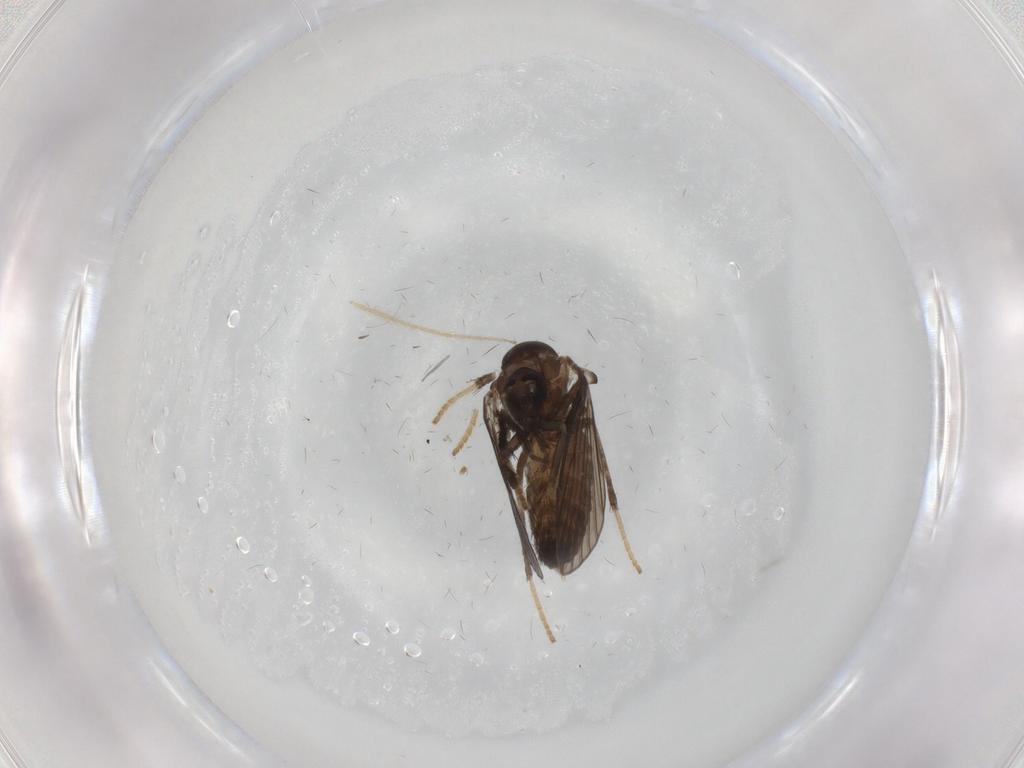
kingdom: Animalia
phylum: Arthropoda
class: Insecta
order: Diptera
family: Psychodidae
